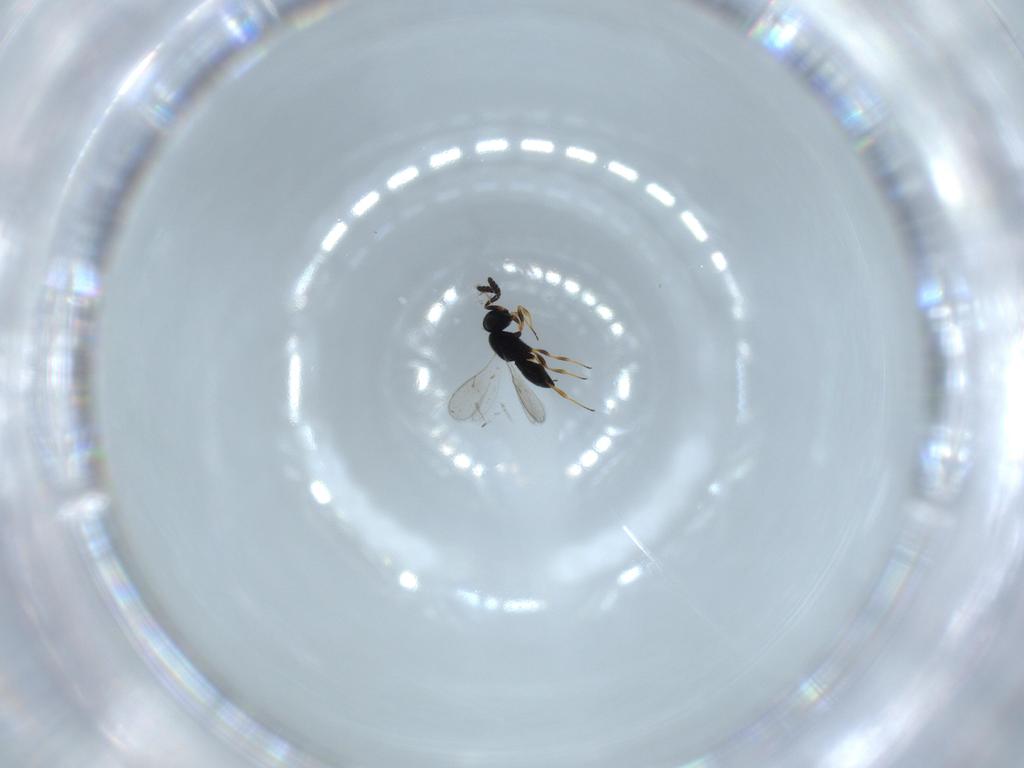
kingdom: Animalia
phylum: Arthropoda
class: Insecta
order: Hymenoptera
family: Scelionidae
